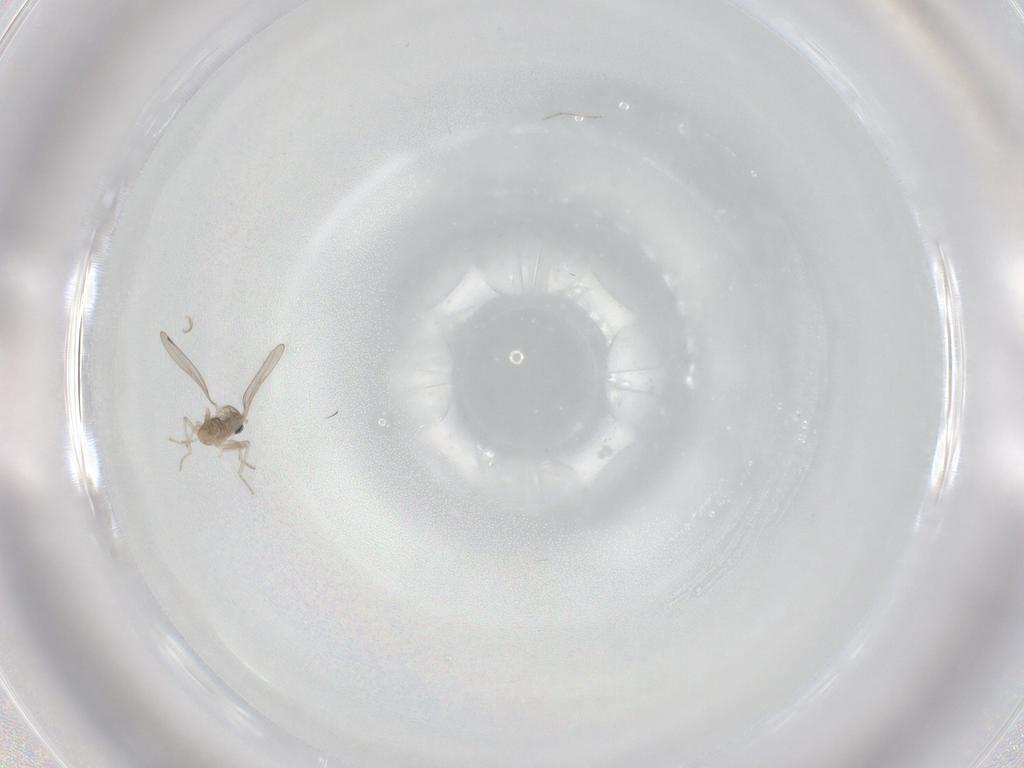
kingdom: Animalia
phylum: Arthropoda
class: Insecta
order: Diptera
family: Cecidomyiidae
